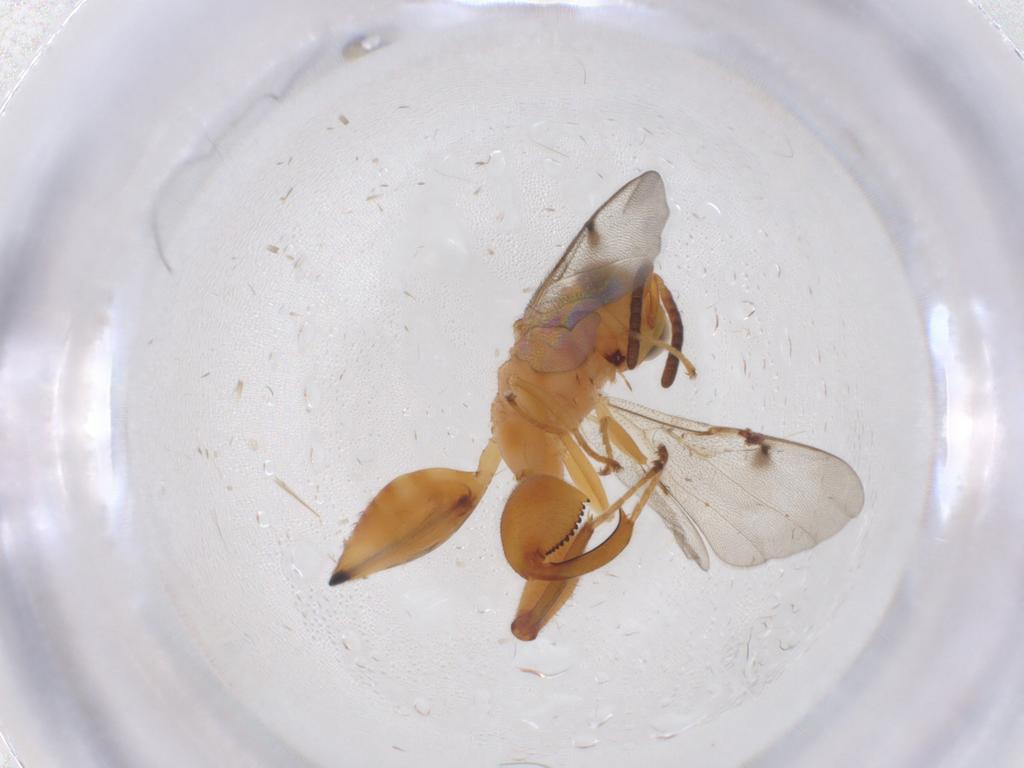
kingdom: Animalia
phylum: Arthropoda
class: Insecta
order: Hymenoptera
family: Chalcididae
